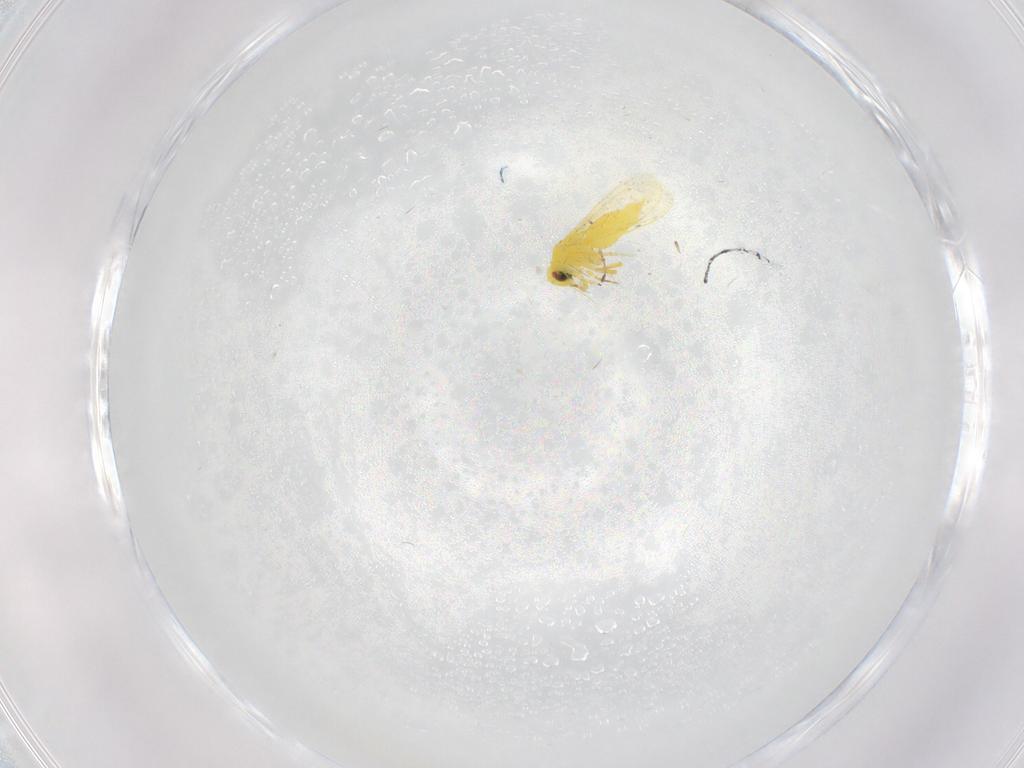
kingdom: Animalia
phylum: Arthropoda
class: Insecta
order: Hemiptera
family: Aleyrodidae
